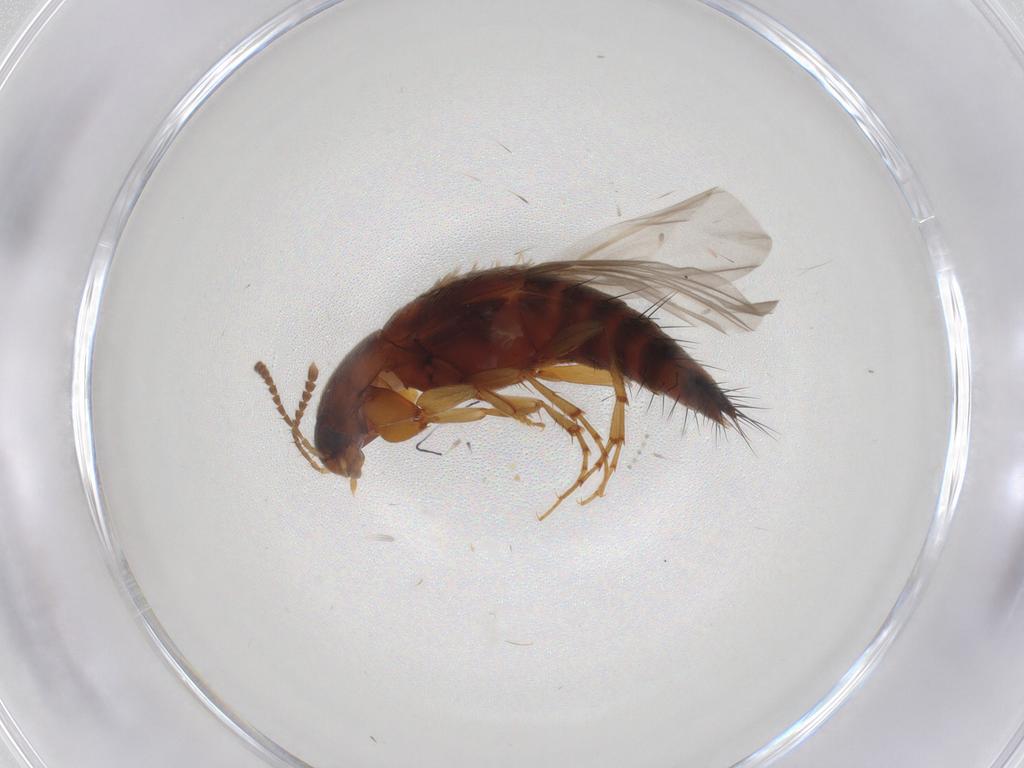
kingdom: Animalia
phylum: Arthropoda
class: Insecta
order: Coleoptera
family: Staphylinidae
